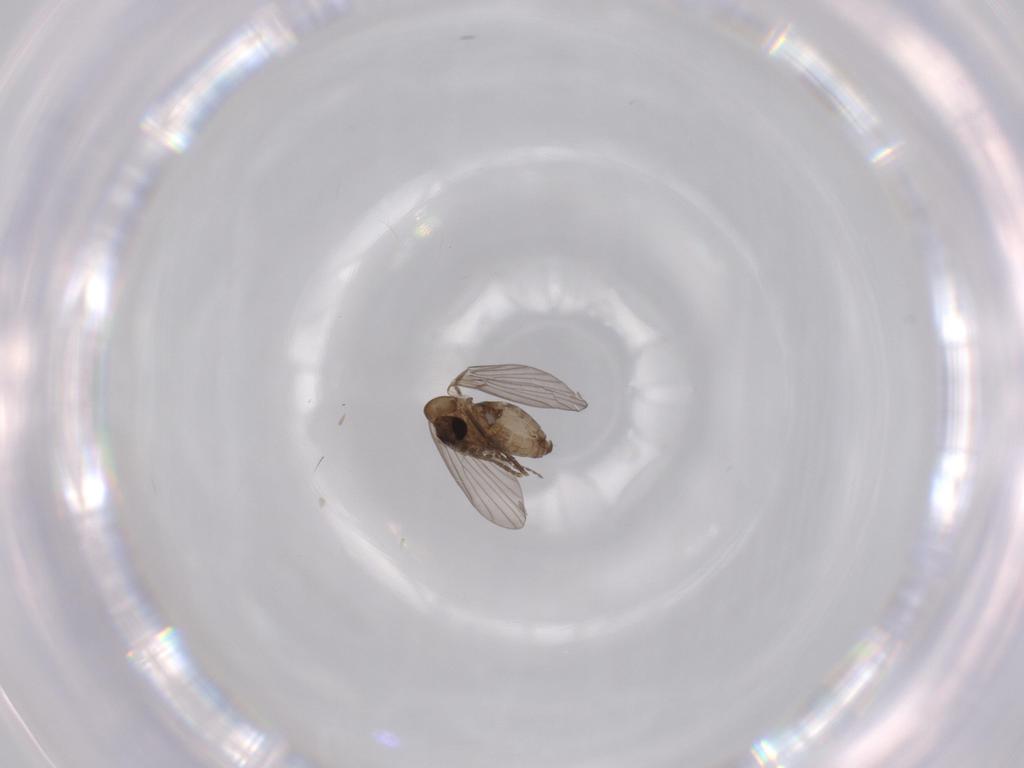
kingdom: Animalia
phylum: Arthropoda
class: Insecta
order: Diptera
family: Psychodidae
